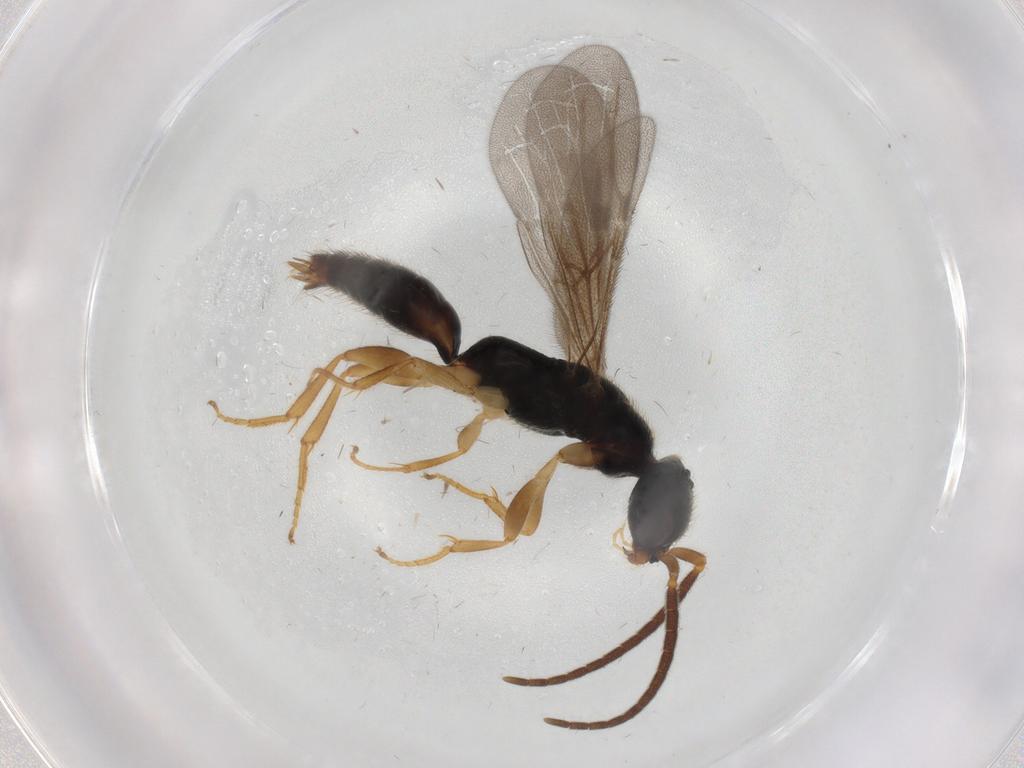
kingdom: Animalia
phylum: Arthropoda
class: Insecta
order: Hymenoptera
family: Bethylidae
